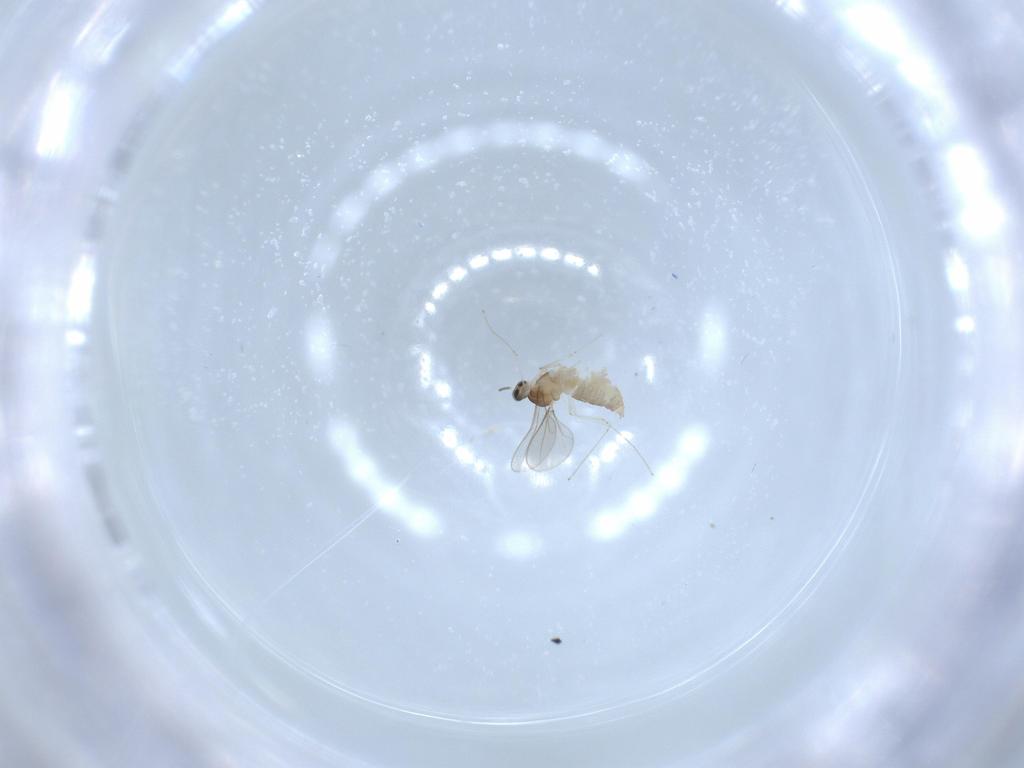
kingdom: Animalia
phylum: Arthropoda
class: Insecta
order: Diptera
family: Cecidomyiidae
